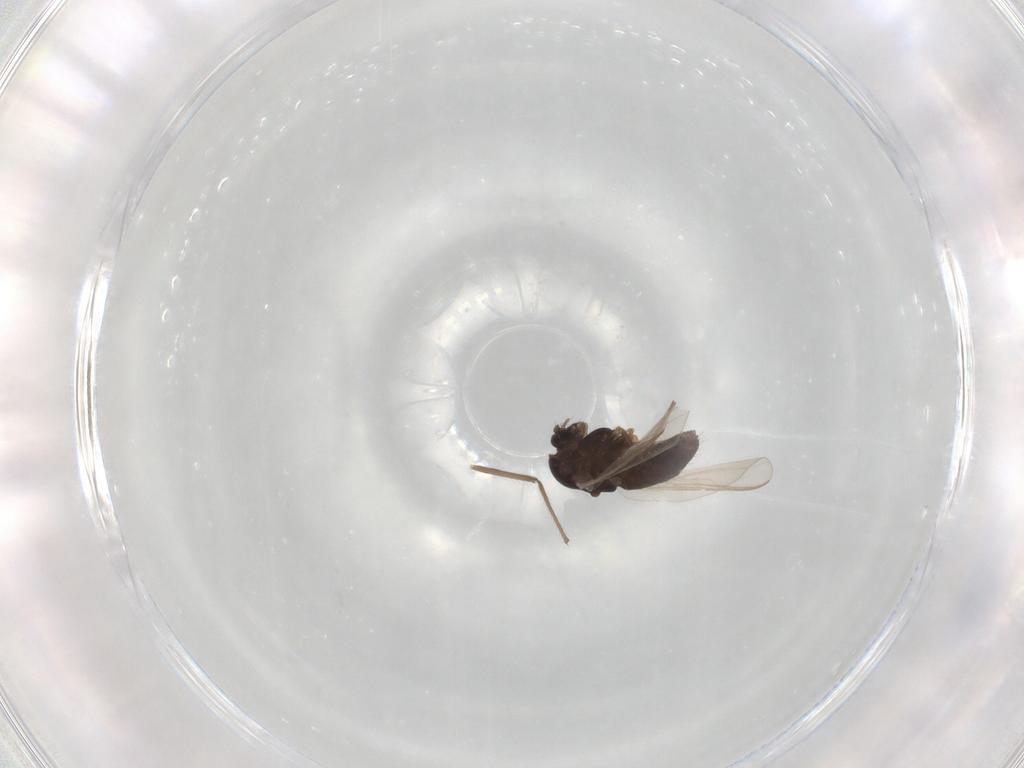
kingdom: Animalia
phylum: Arthropoda
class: Insecta
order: Diptera
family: Chironomidae
